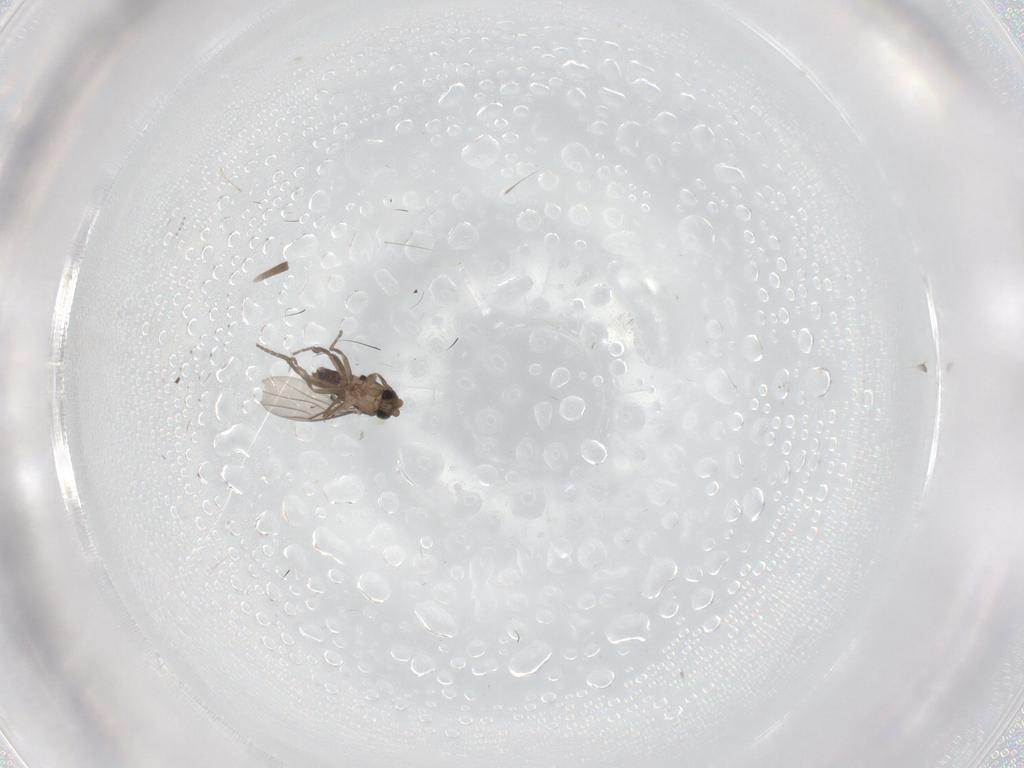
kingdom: Animalia
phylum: Arthropoda
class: Insecta
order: Diptera
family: Sciaridae
